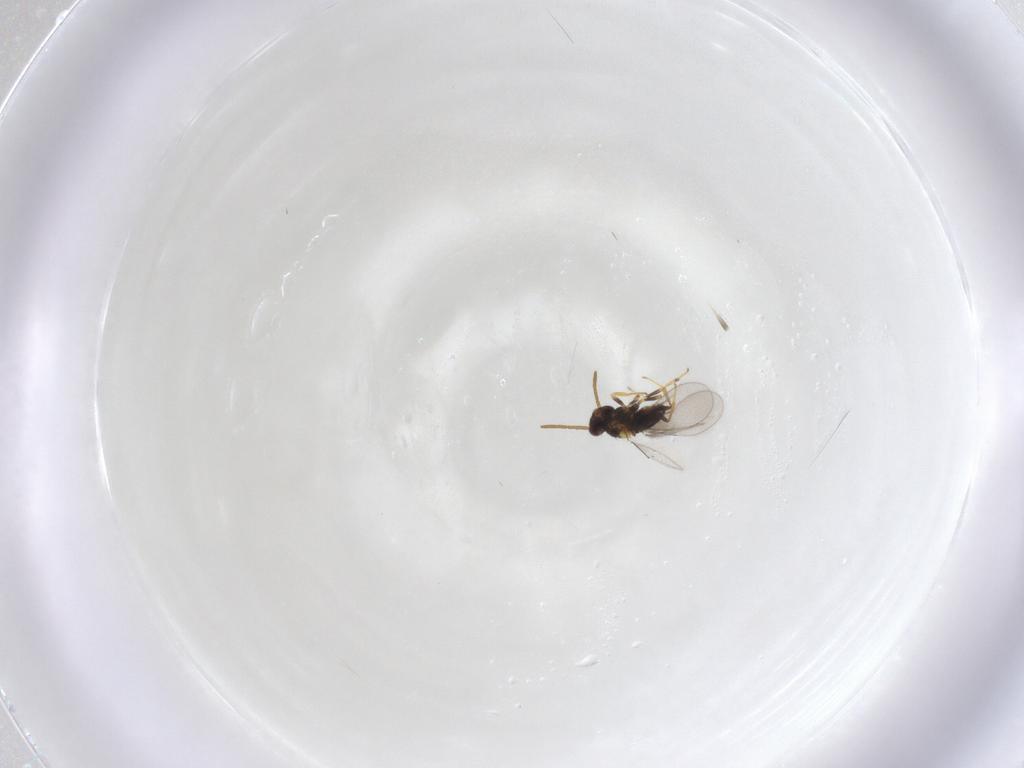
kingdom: Animalia
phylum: Arthropoda
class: Insecta
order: Hymenoptera
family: Aphelinidae
